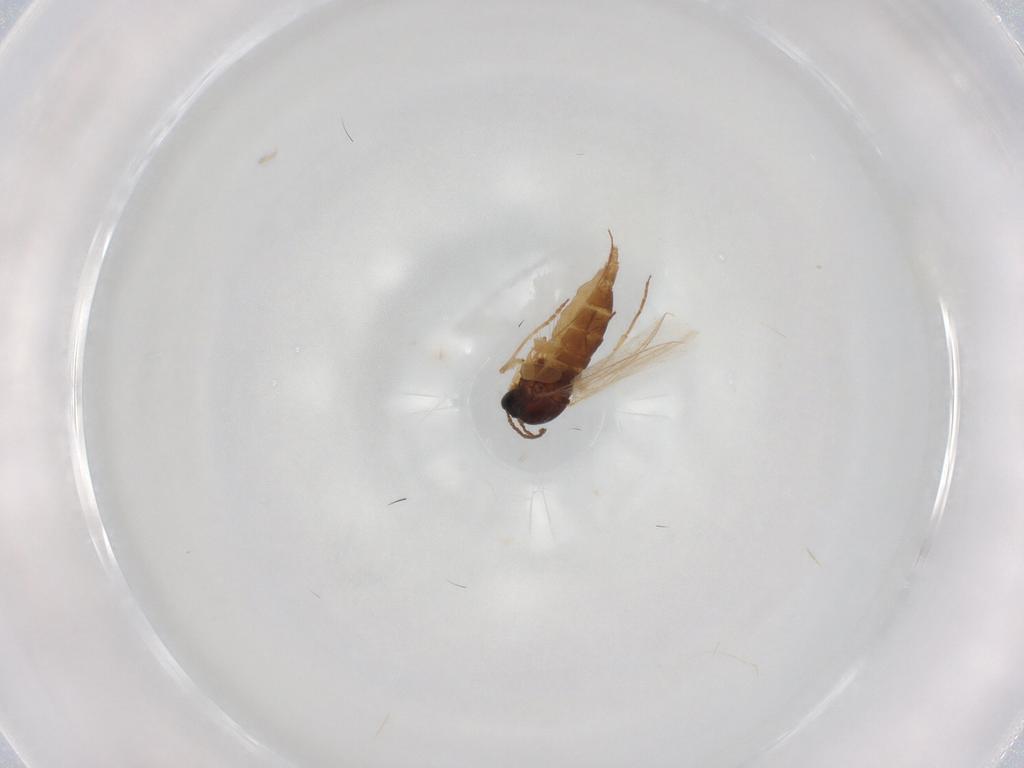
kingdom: Animalia
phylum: Arthropoda
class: Insecta
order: Diptera
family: Sciaridae
